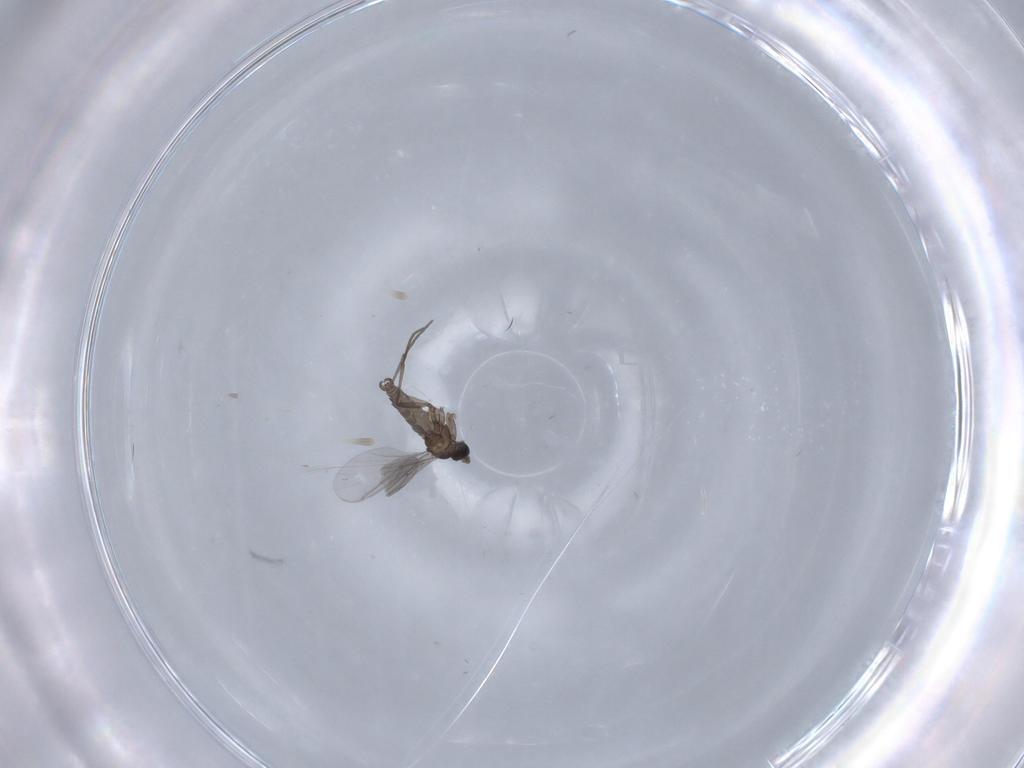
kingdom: Animalia
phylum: Arthropoda
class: Insecta
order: Diptera
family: Sciaridae
